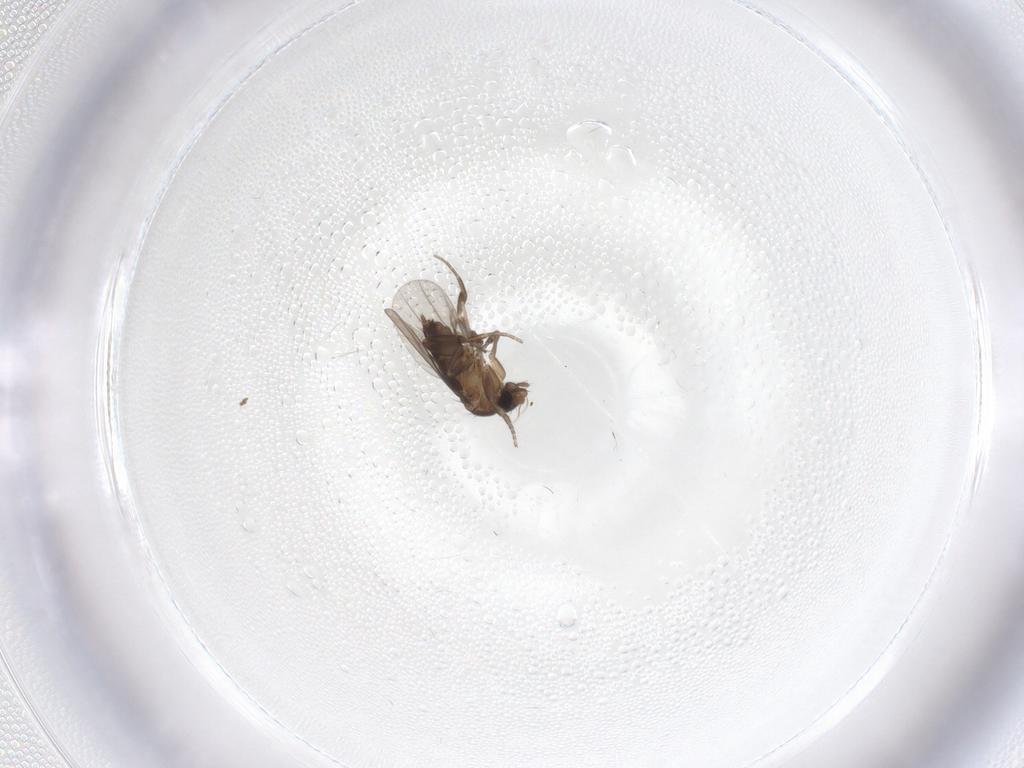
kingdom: Animalia
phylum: Arthropoda
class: Insecta
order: Diptera
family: Phoridae
